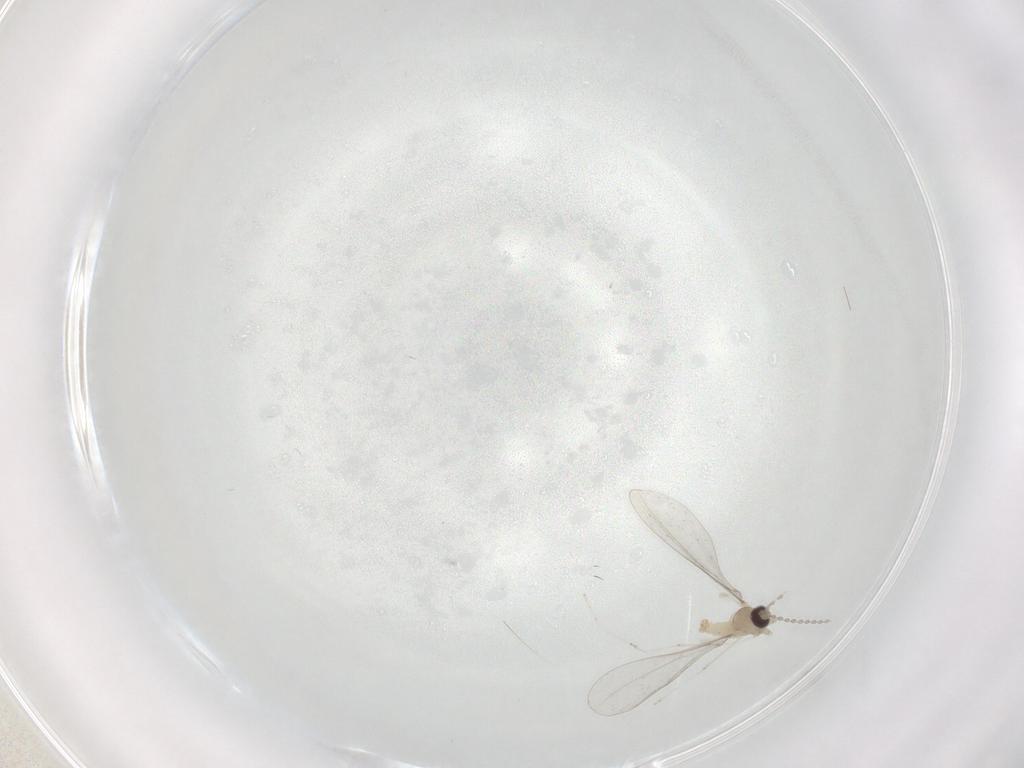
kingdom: Animalia
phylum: Arthropoda
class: Insecta
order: Diptera
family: Cecidomyiidae
